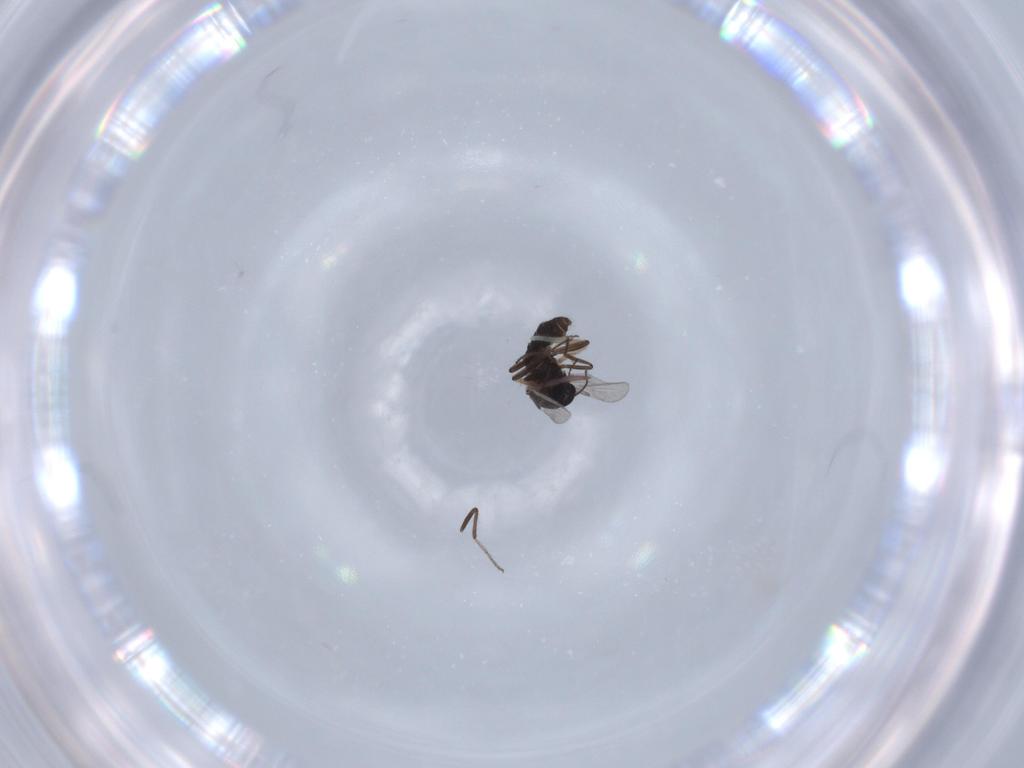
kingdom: Animalia
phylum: Arthropoda
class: Insecta
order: Diptera
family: Ceratopogonidae
